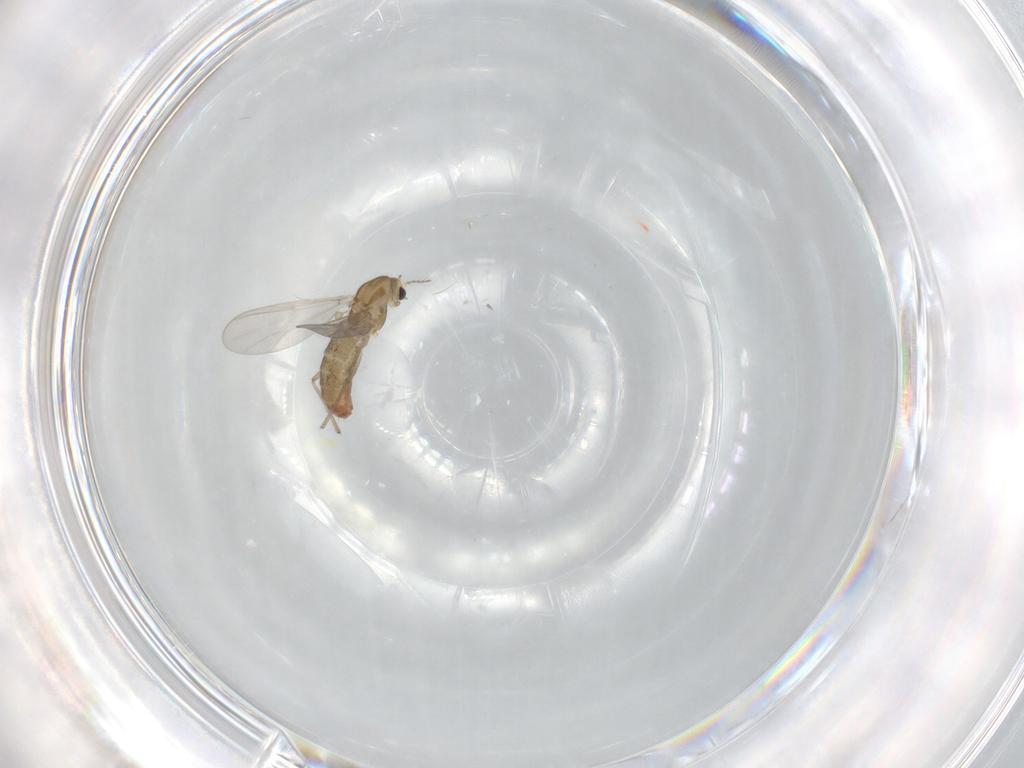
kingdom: Animalia
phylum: Arthropoda
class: Insecta
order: Diptera
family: Chironomidae
